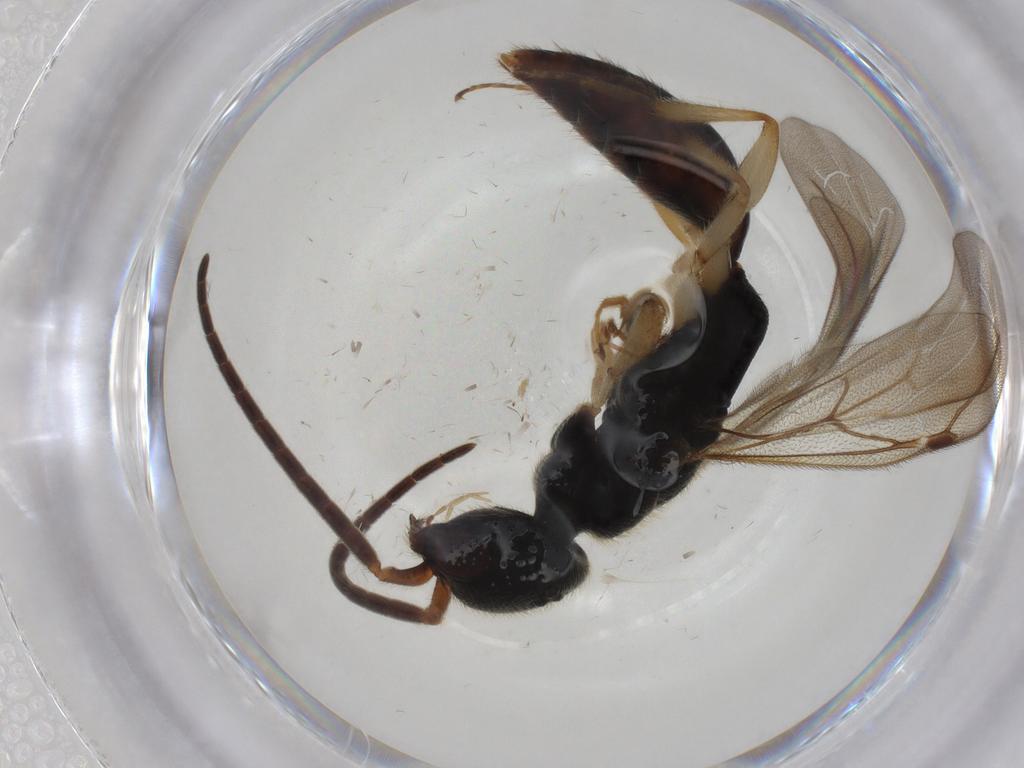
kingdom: Animalia
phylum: Arthropoda
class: Insecta
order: Hymenoptera
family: Bethylidae
